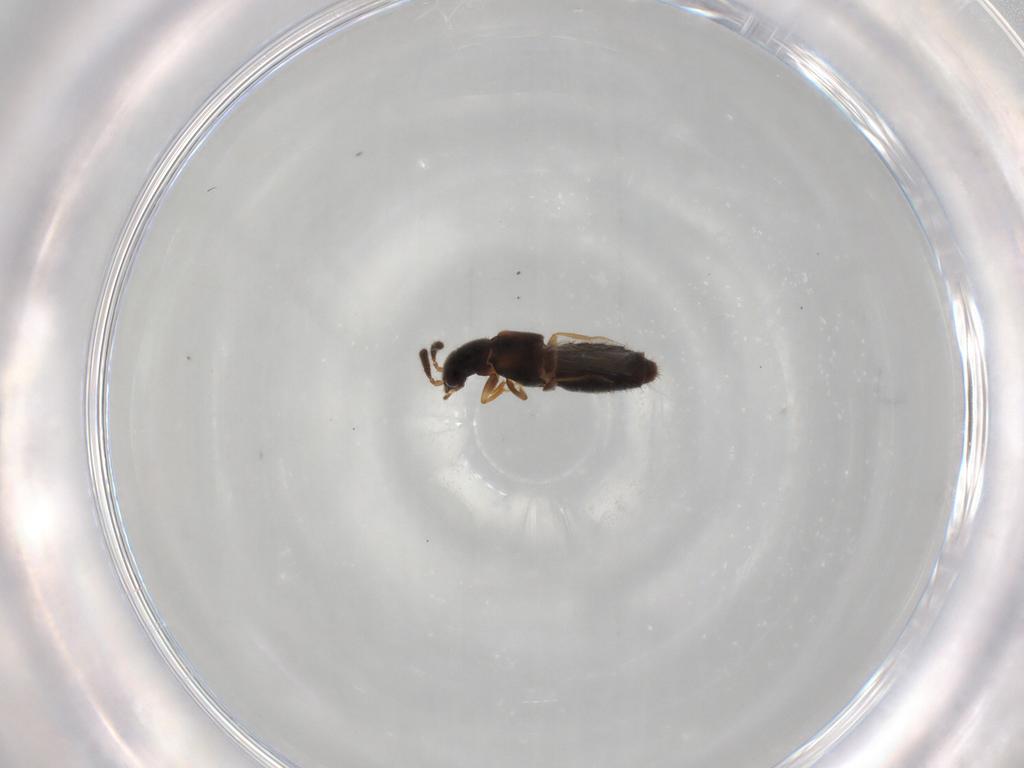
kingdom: Animalia
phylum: Arthropoda
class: Insecta
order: Coleoptera
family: Staphylinidae
